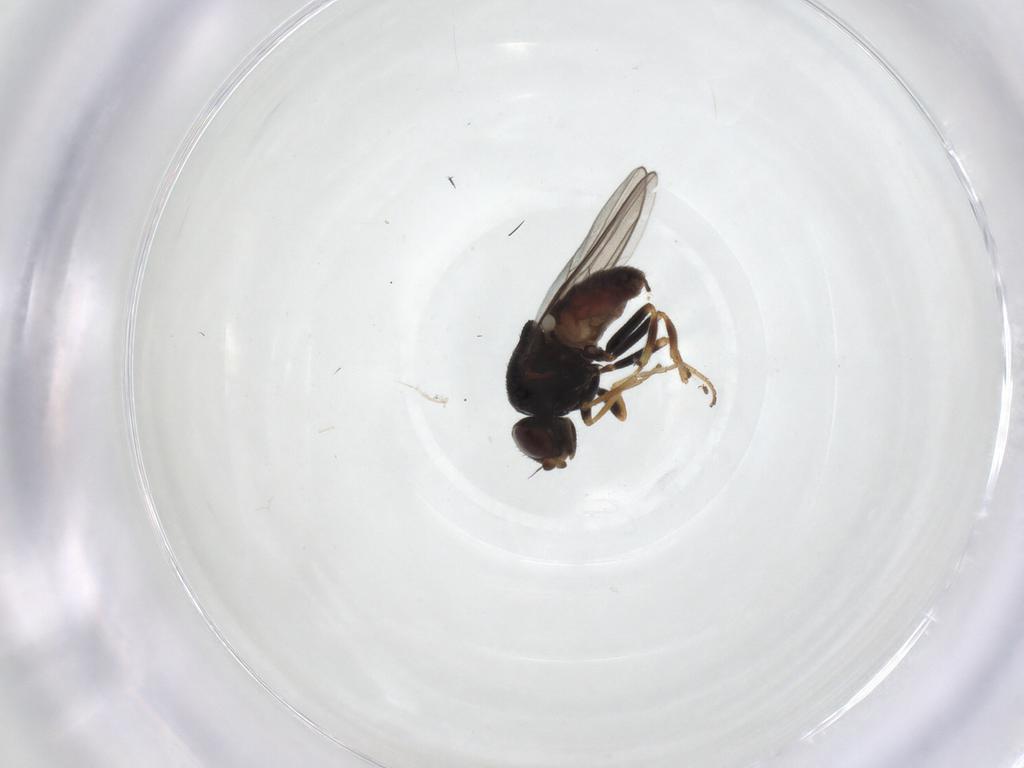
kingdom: Animalia
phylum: Arthropoda
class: Insecta
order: Diptera
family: Chloropidae
